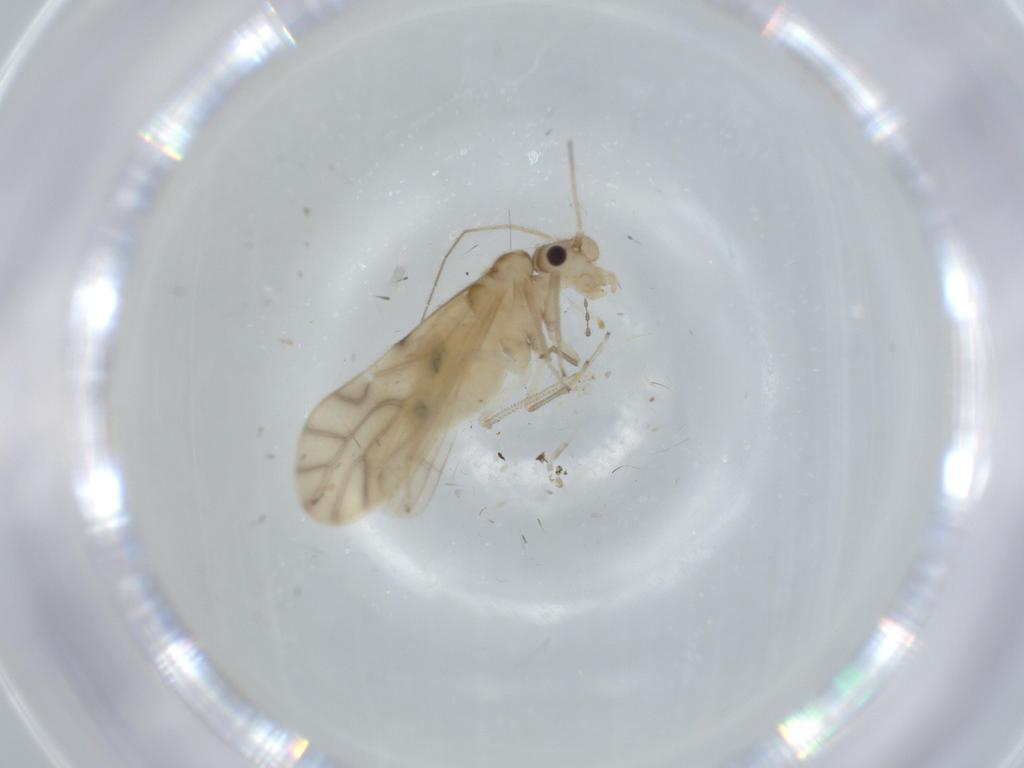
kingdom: Animalia
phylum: Arthropoda
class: Insecta
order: Psocodea
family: Caeciliusidae
